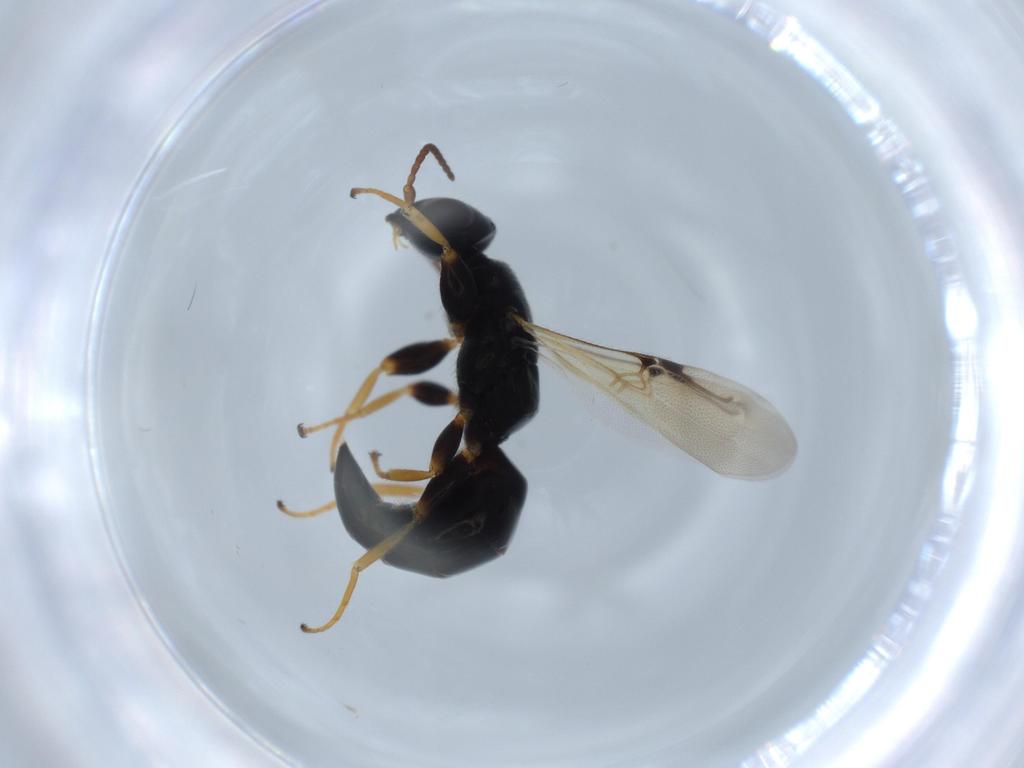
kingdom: Animalia
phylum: Arthropoda
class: Insecta
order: Hymenoptera
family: Bethylidae
